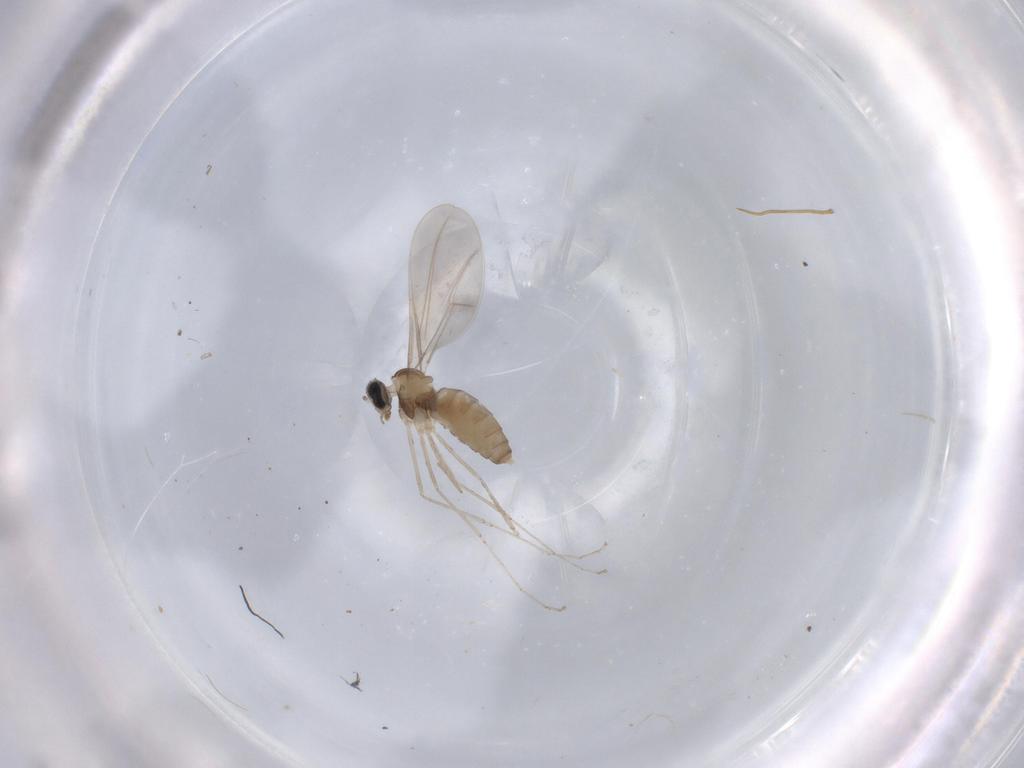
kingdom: Animalia
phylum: Arthropoda
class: Insecta
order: Diptera
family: Cecidomyiidae
